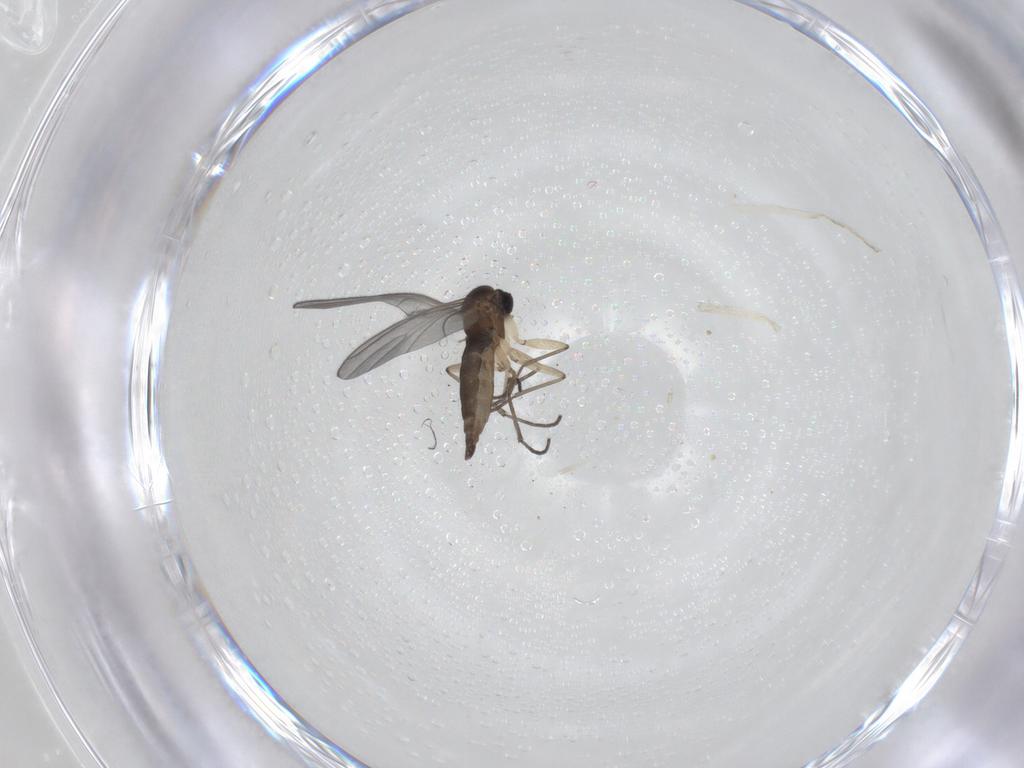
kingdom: Animalia
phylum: Arthropoda
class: Insecta
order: Diptera
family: Sciaridae
